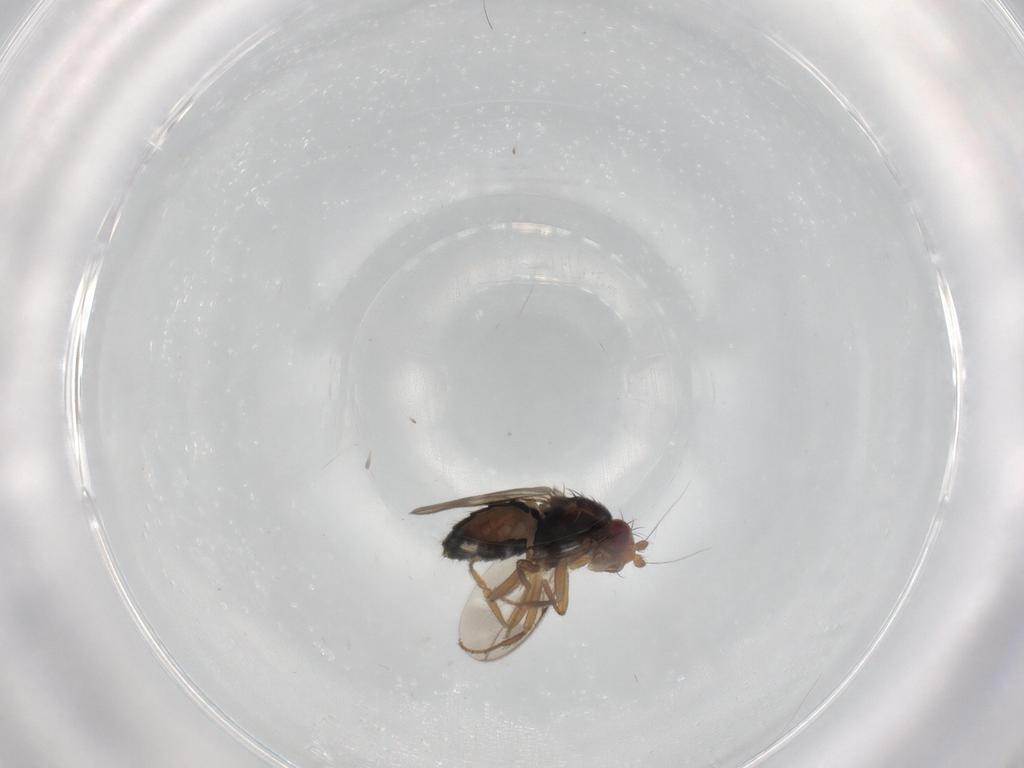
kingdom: Animalia
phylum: Arthropoda
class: Insecta
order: Diptera
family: Sphaeroceridae
